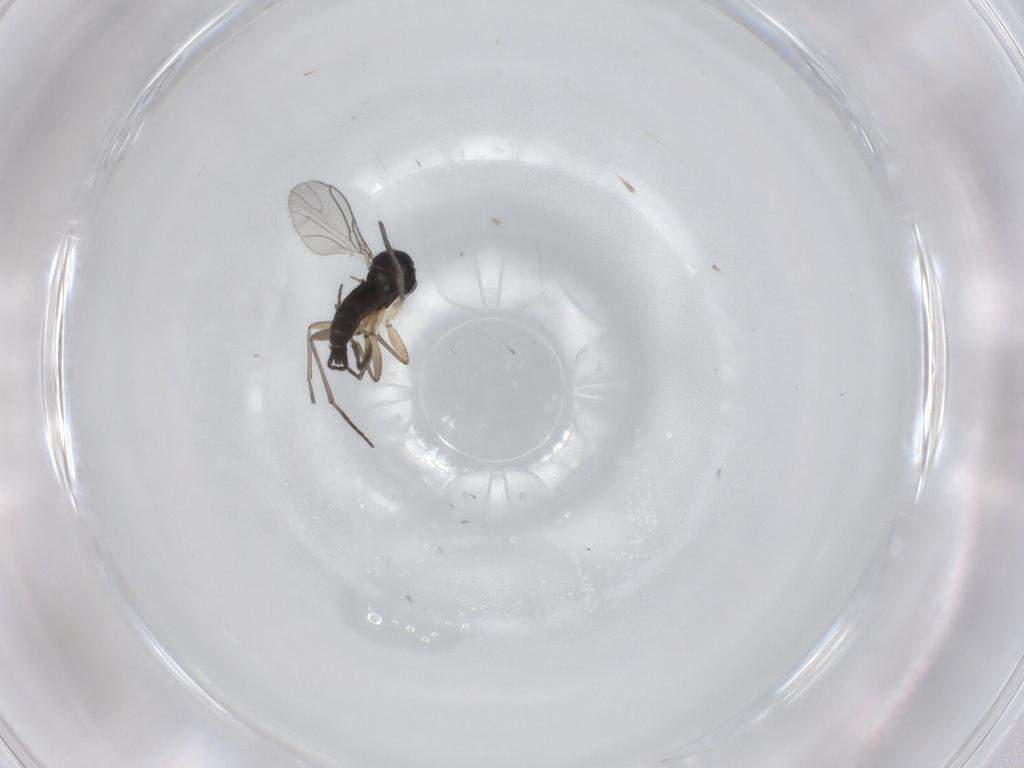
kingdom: Animalia
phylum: Arthropoda
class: Insecta
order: Diptera
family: Sciaridae
